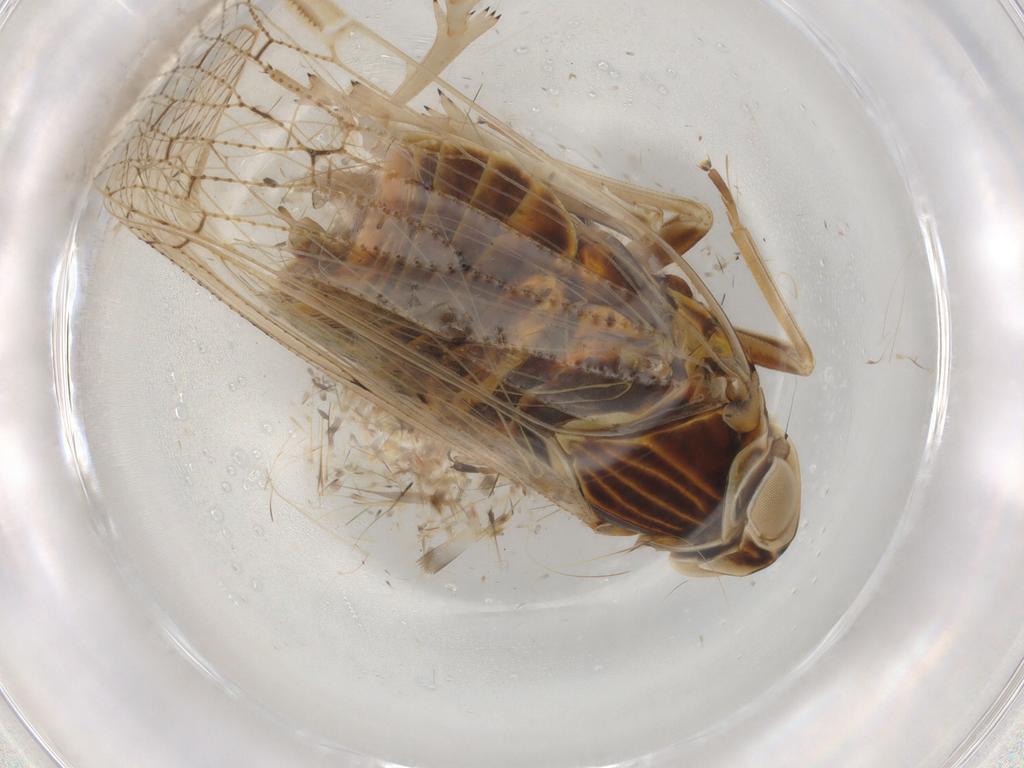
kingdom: Animalia
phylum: Arthropoda
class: Insecta
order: Hemiptera
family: Cixiidae
